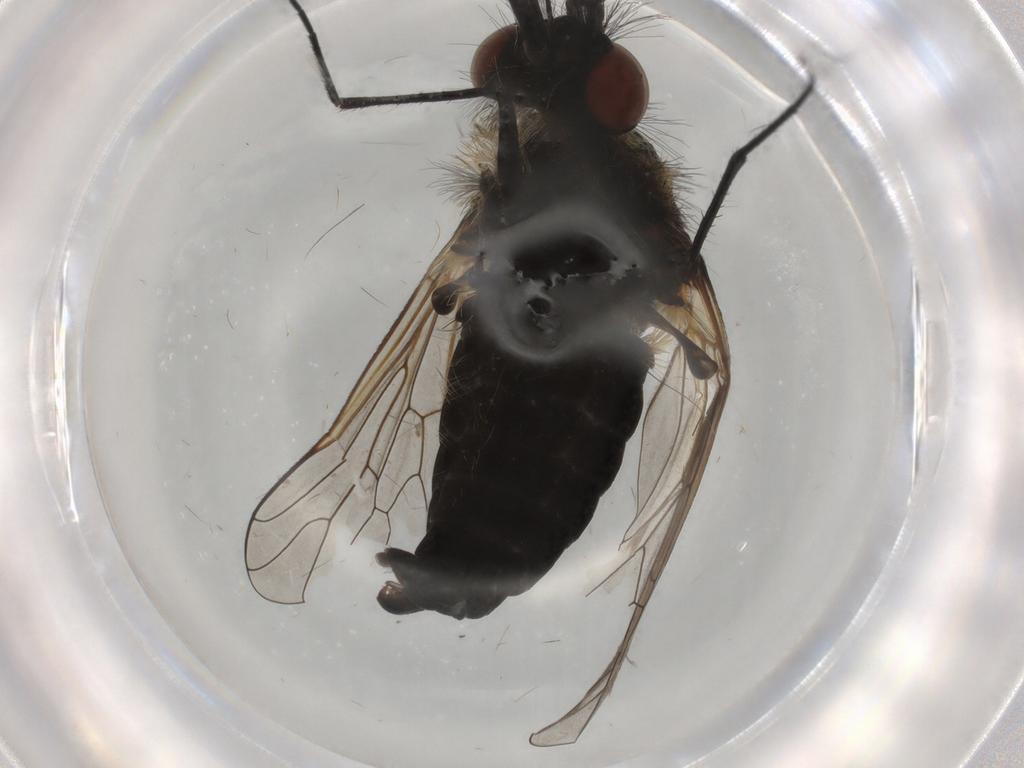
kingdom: Animalia
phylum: Arthropoda
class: Insecta
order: Diptera
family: Bombyliidae
